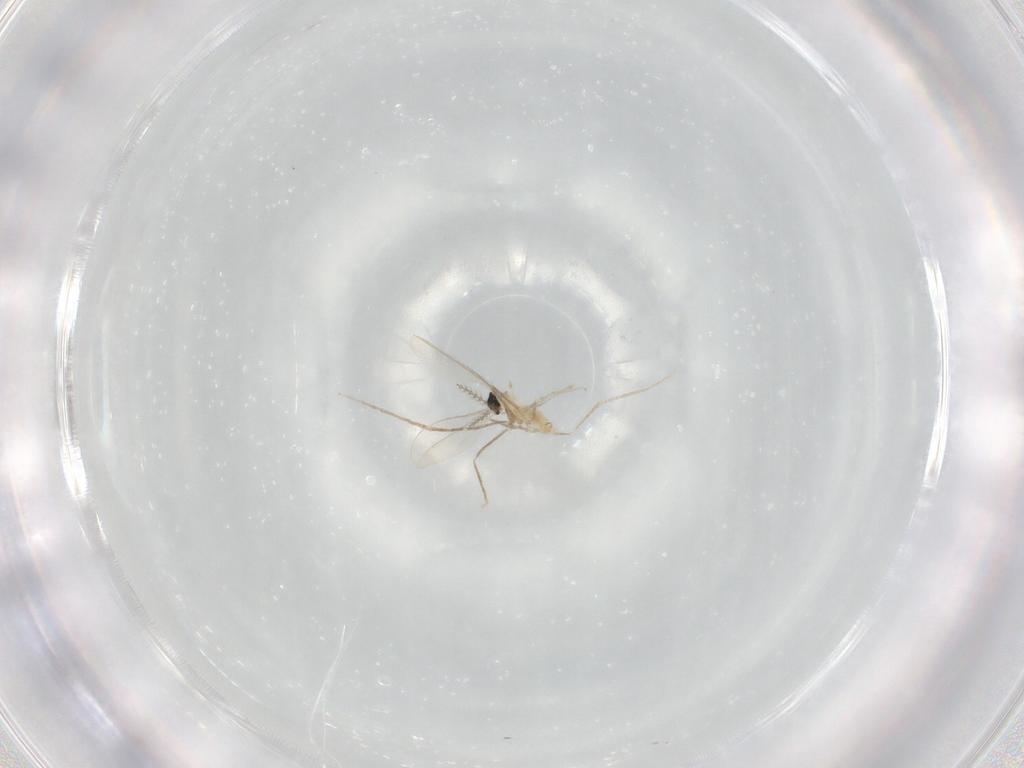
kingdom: Animalia
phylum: Arthropoda
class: Insecta
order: Diptera
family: Cecidomyiidae
